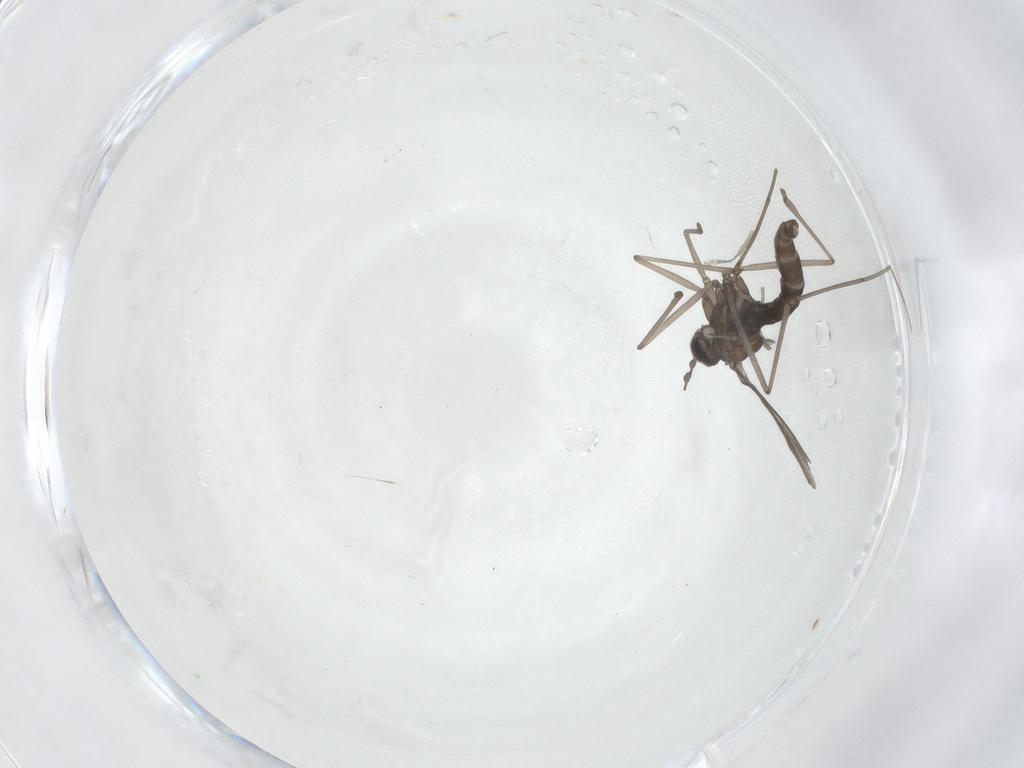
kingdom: Animalia
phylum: Arthropoda
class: Insecta
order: Diptera
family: Cecidomyiidae
